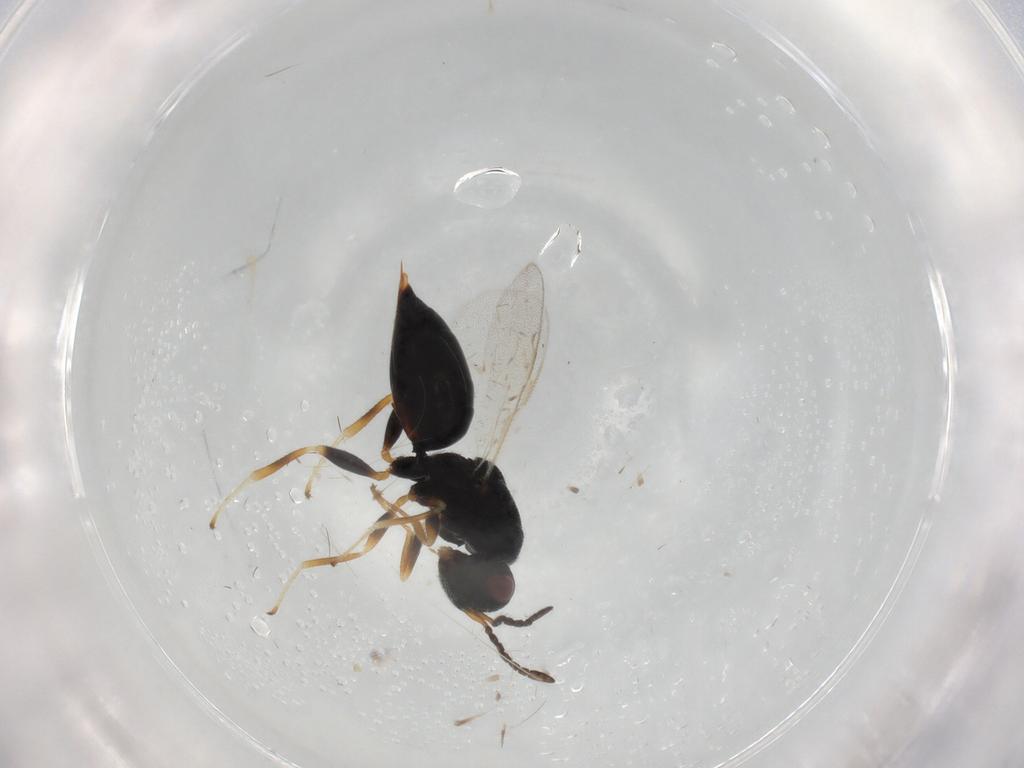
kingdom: Animalia
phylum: Arthropoda
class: Insecta
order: Hymenoptera
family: Eurytomidae
